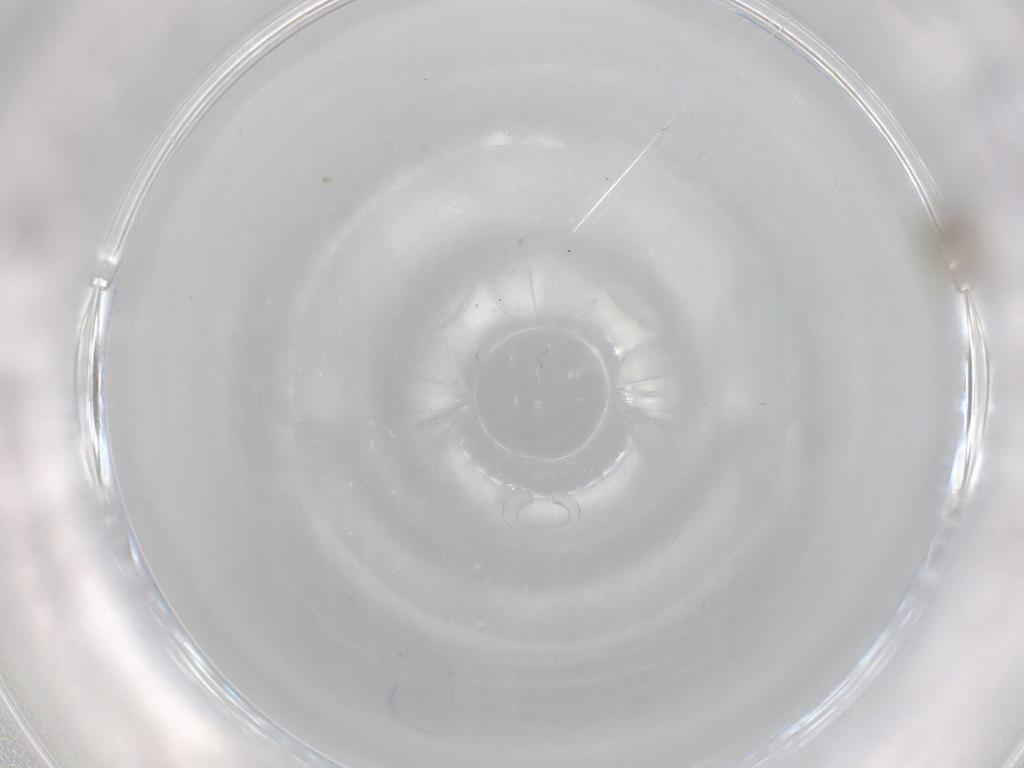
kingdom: Animalia
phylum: Arthropoda
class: Insecta
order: Diptera
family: Cecidomyiidae
